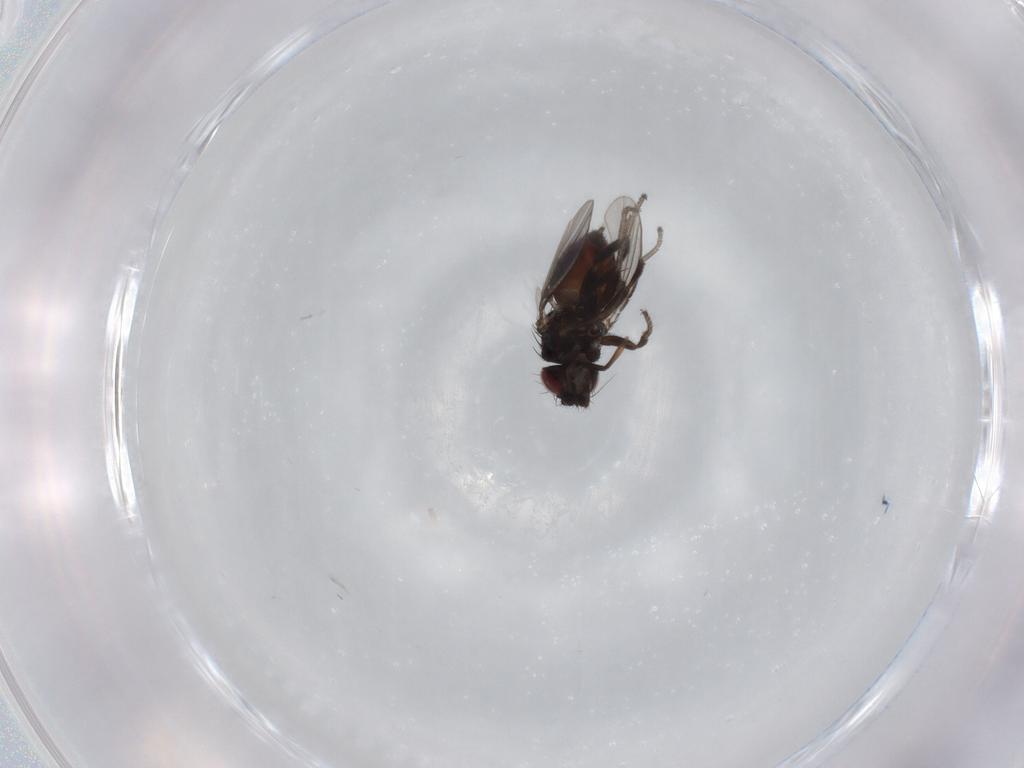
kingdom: Animalia
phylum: Arthropoda
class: Insecta
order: Diptera
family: Milichiidae
